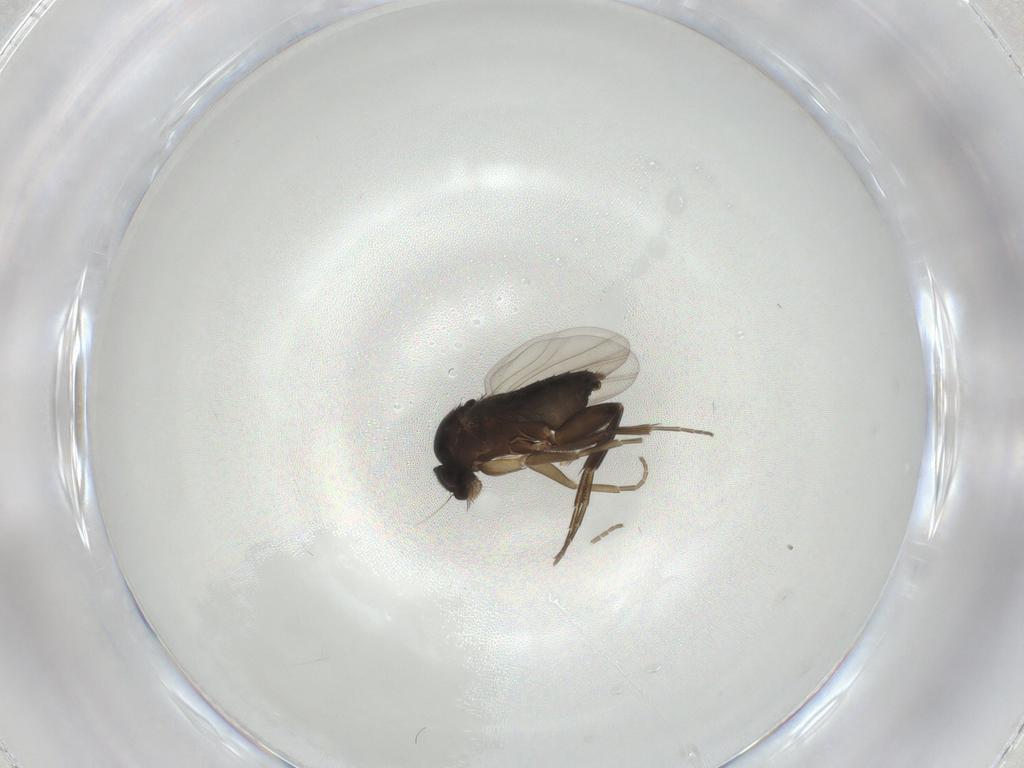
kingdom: Animalia
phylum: Arthropoda
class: Insecta
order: Diptera
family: Phoridae
